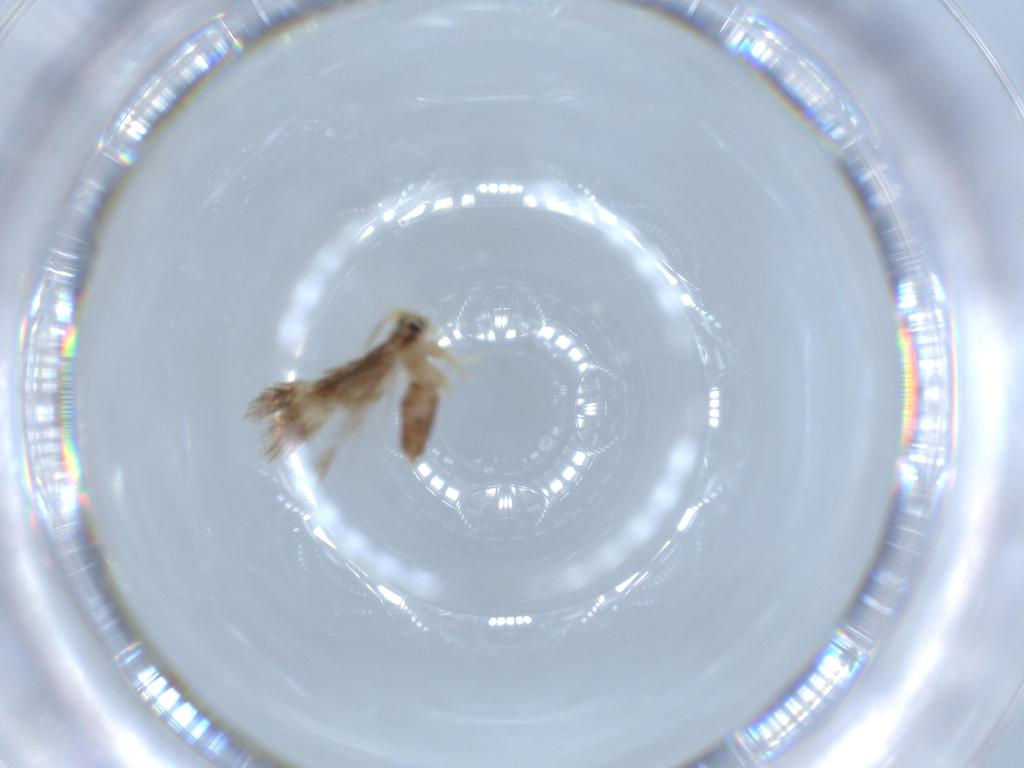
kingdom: Animalia
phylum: Arthropoda
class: Insecta
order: Lepidoptera
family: Nepticulidae
